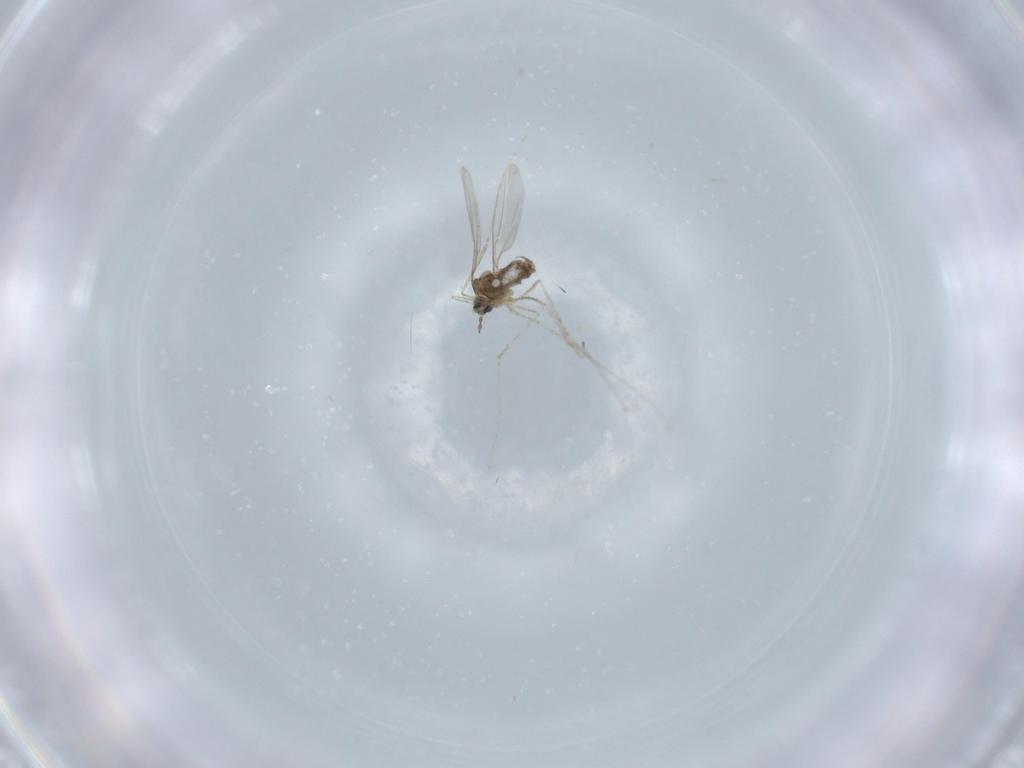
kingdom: Animalia
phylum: Arthropoda
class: Insecta
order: Diptera
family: Cecidomyiidae
